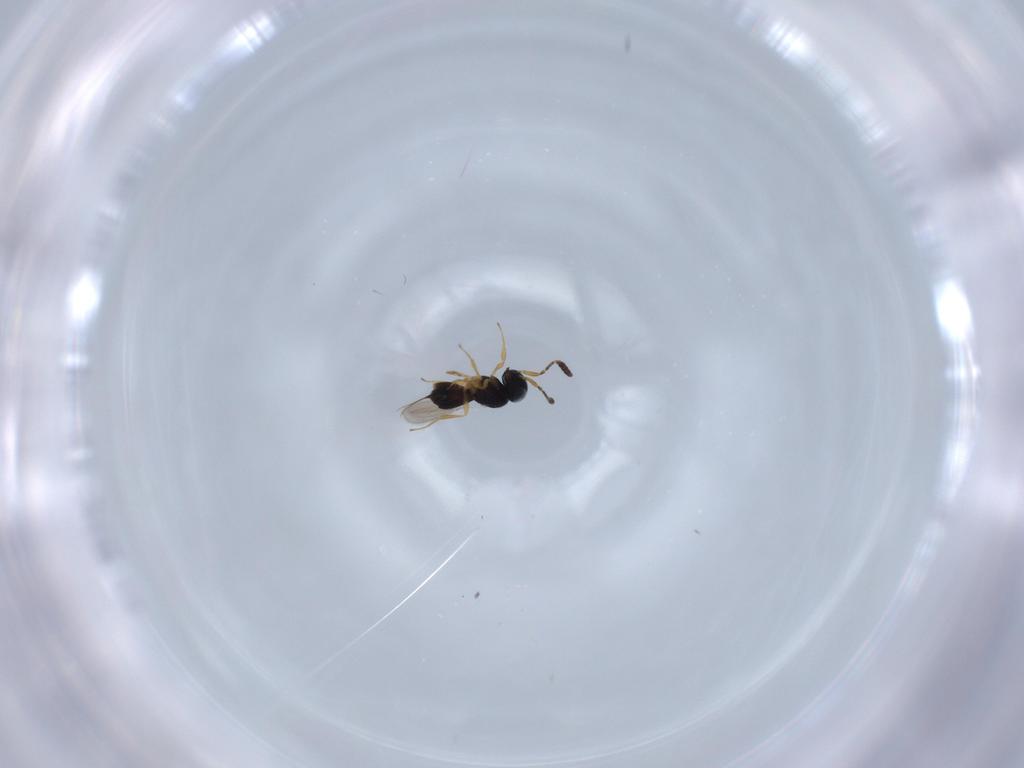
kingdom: Animalia
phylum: Arthropoda
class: Insecta
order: Hymenoptera
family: Scelionidae
